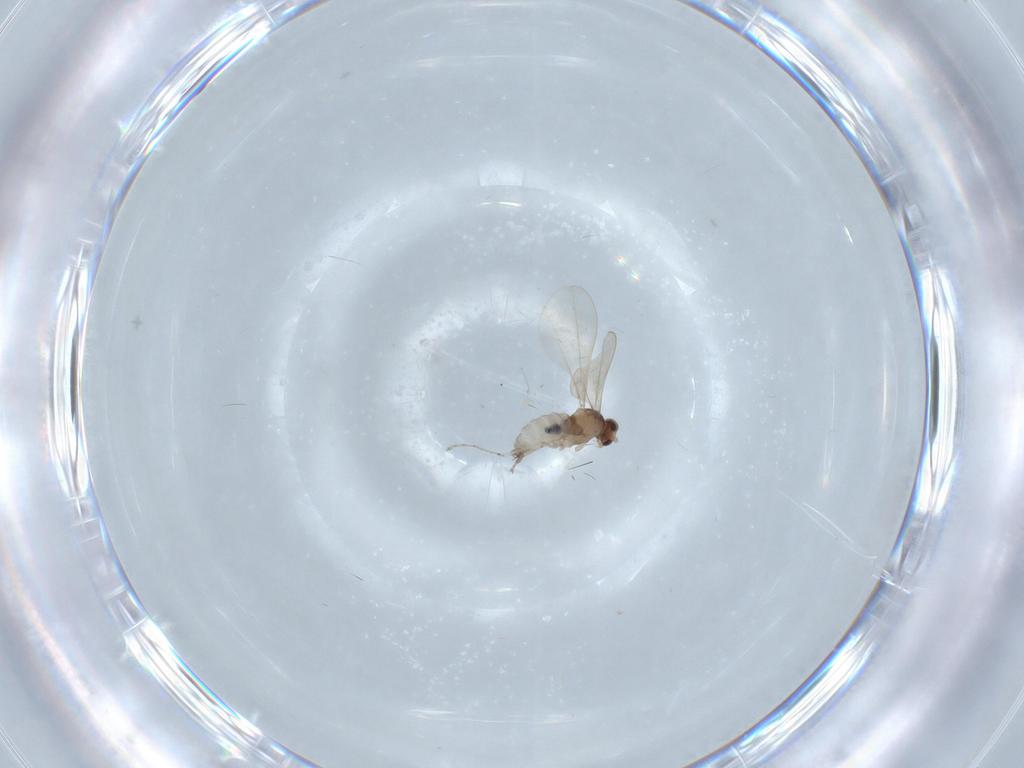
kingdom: Animalia
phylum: Arthropoda
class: Insecta
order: Diptera
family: Cecidomyiidae
